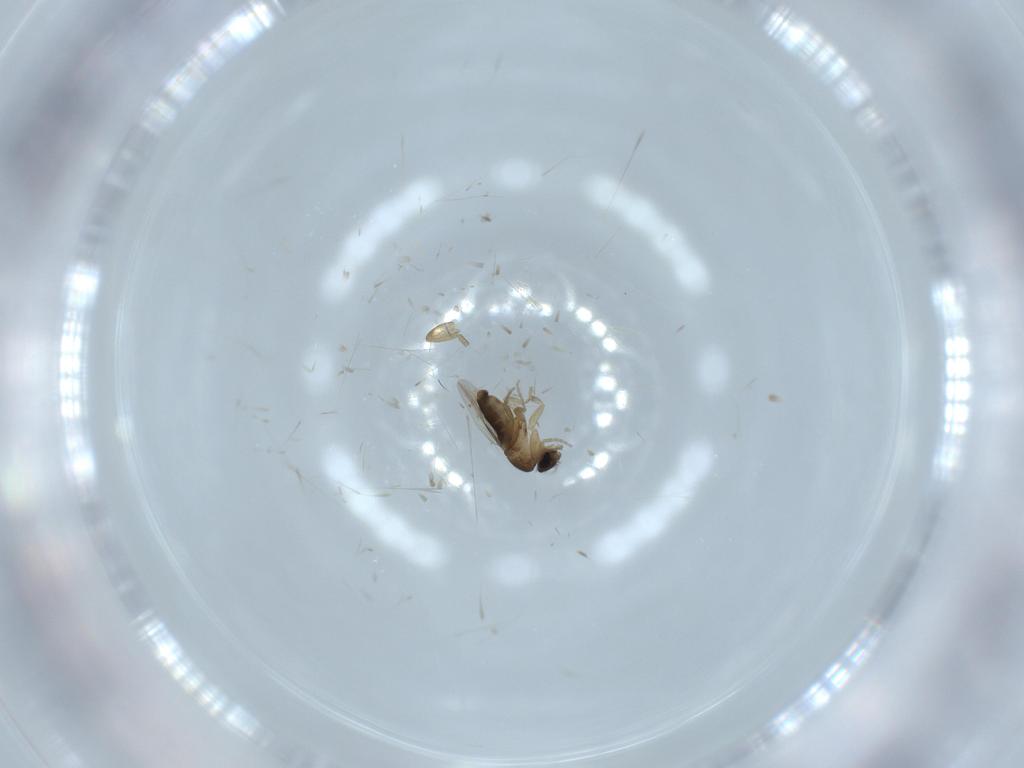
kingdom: Animalia
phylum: Arthropoda
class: Insecta
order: Diptera
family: Phoridae
